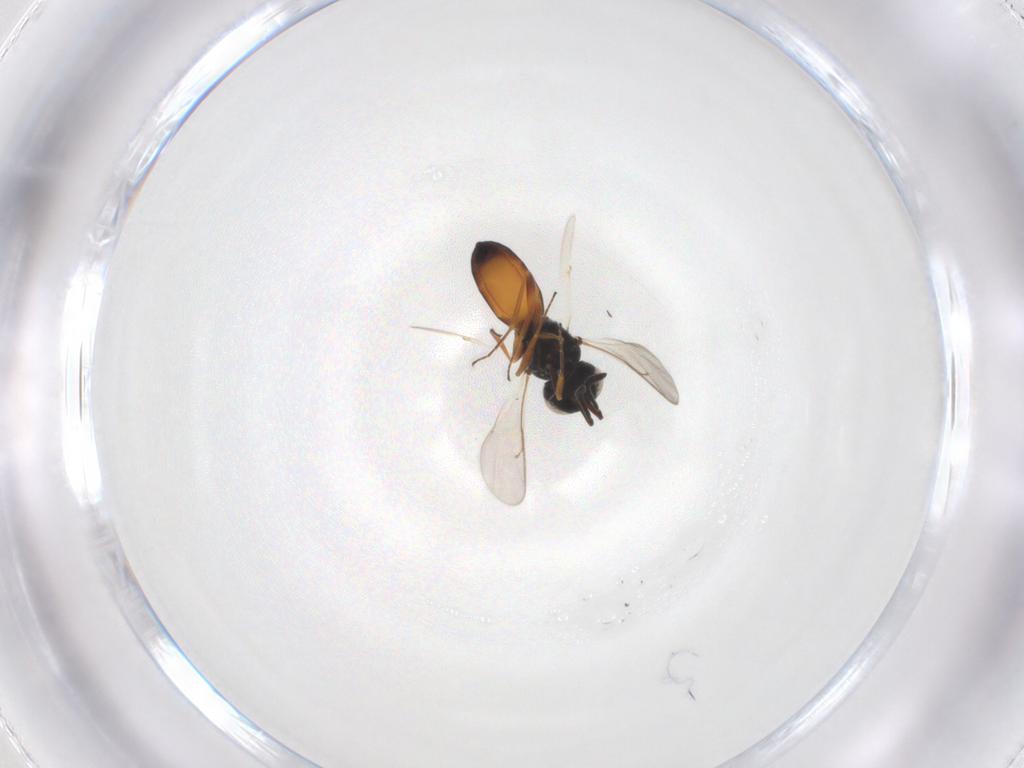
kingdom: Animalia
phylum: Arthropoda
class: Insecta
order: Hymenoptera
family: Scelionidae
